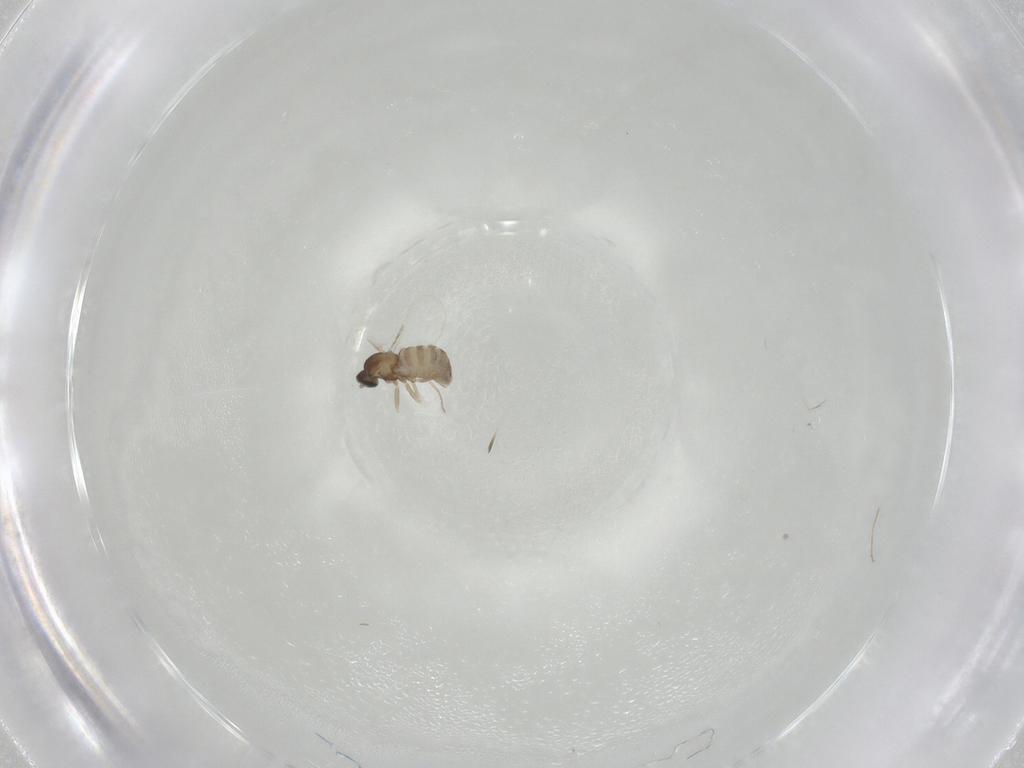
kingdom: Animalia
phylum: Arthropoda
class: Insecta
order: Diptera
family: Cecidomyiidae
